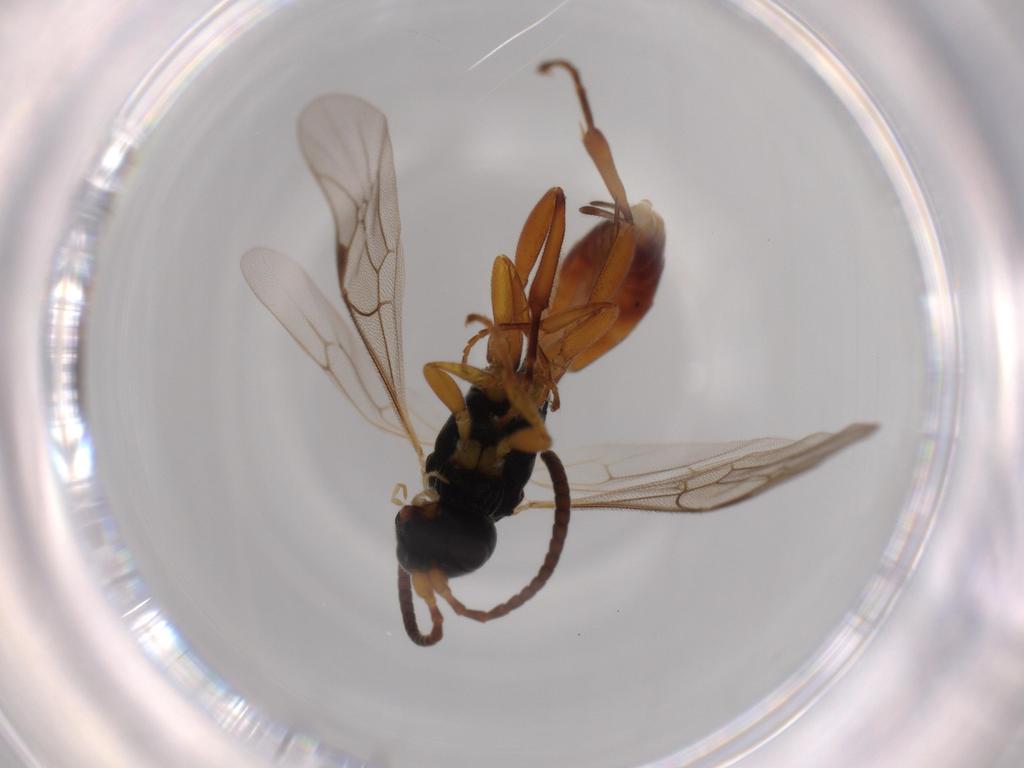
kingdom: Animalia
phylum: Arthropoda
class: Insecta
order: Hymenoptera
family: Ichneumonidae
